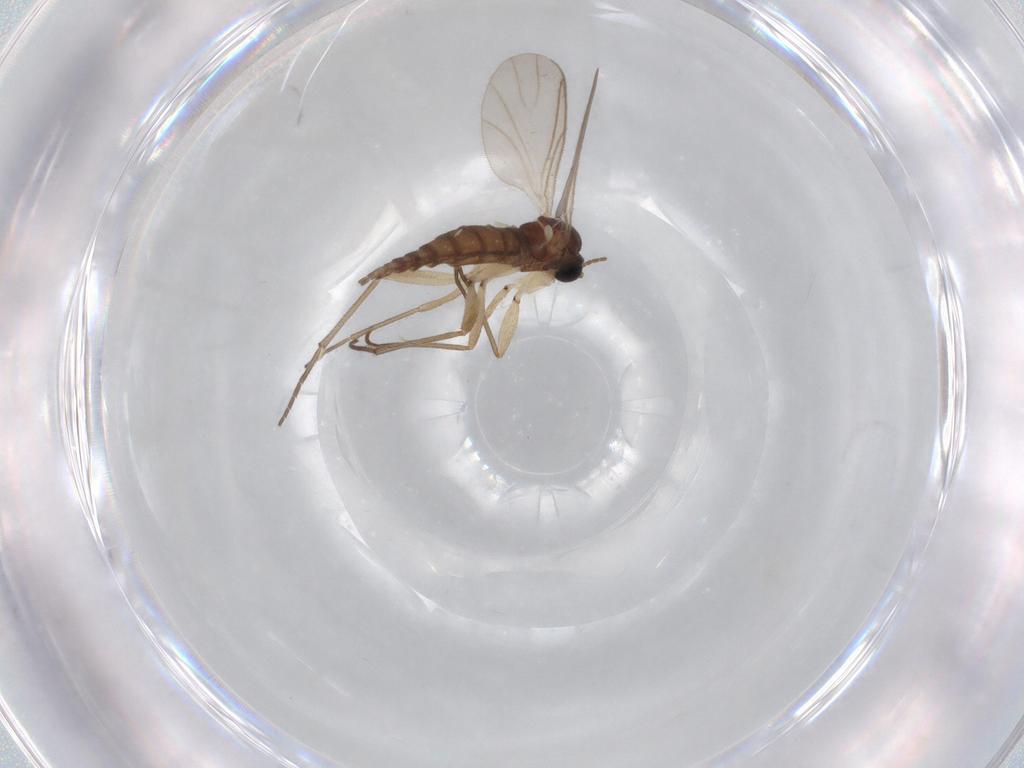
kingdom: Animalia
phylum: Arthropoda
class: Insecta
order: Diptera
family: Sciaridae
